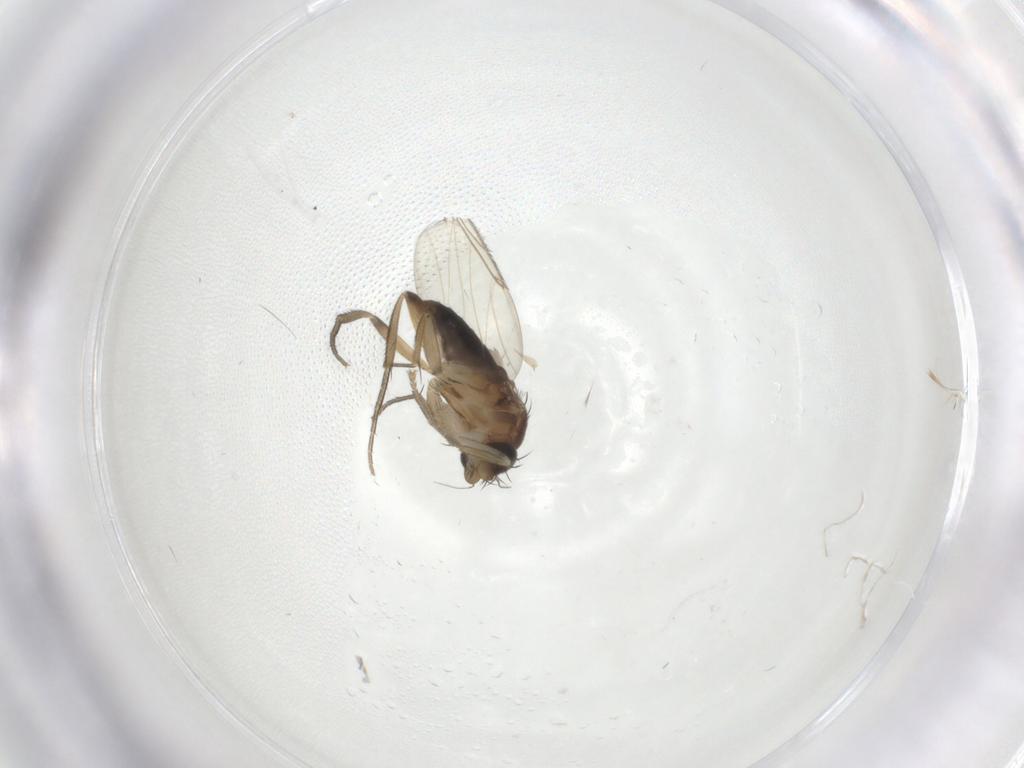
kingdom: Animalia
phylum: Arthropoda
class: Insecta
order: Diptera
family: Phoridae
